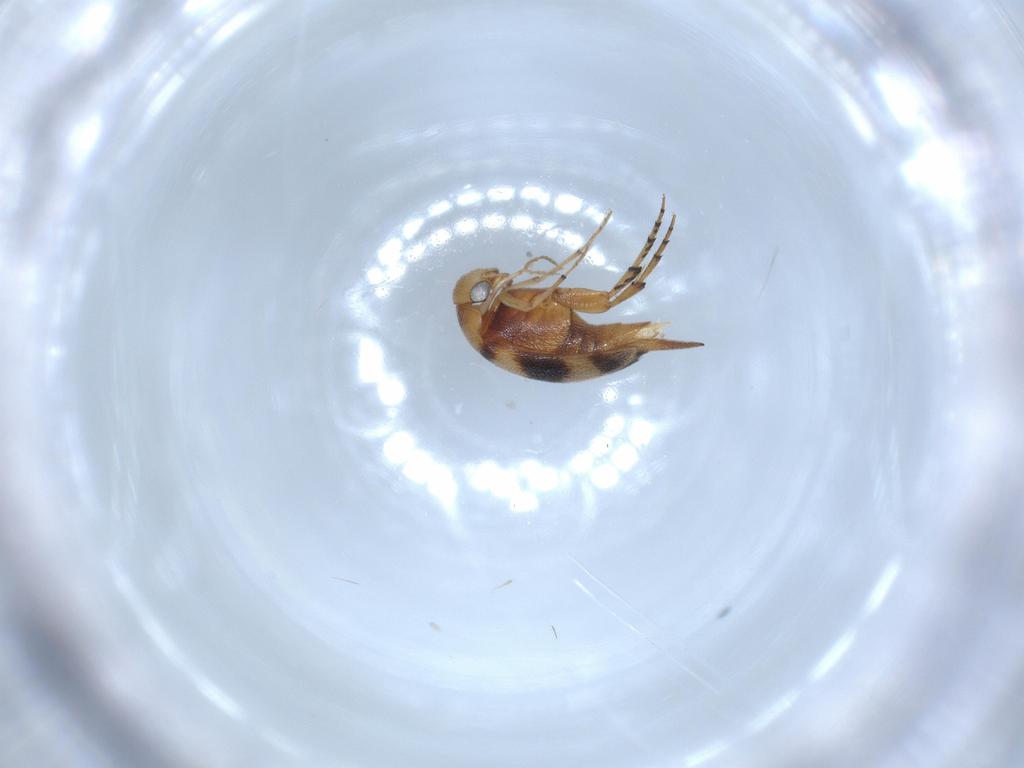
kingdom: Animalia
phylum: Arthropoda
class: Insecta
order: Coleoptera
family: Mordellidae
